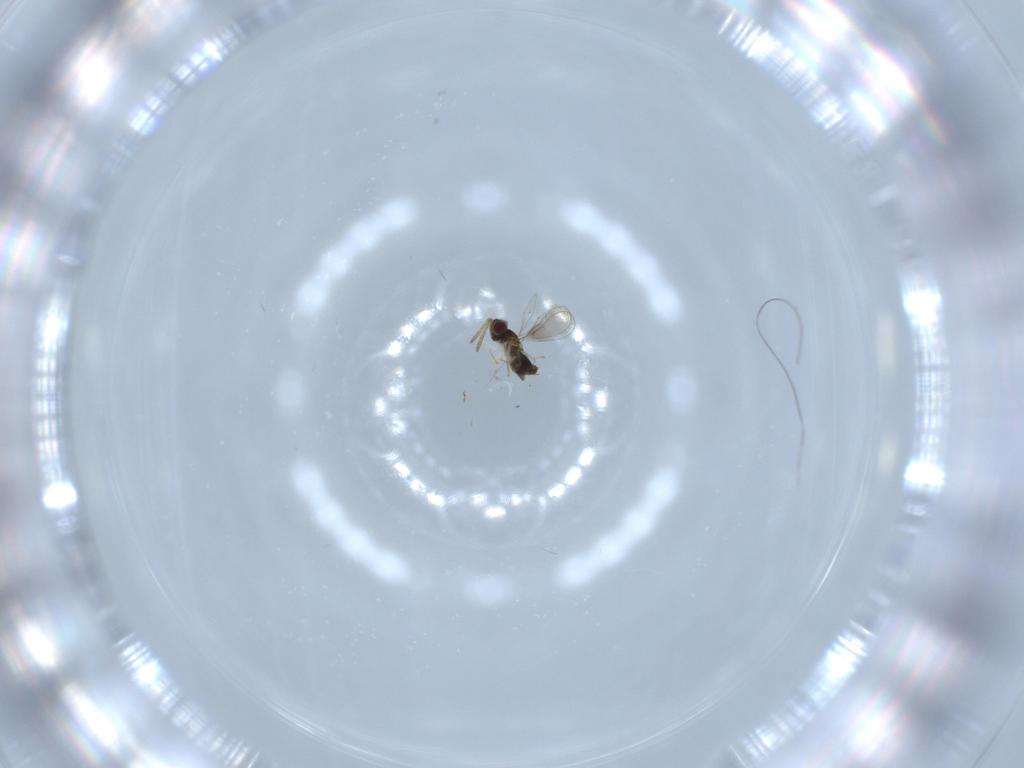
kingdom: Animalia
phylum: Arthropoda
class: Insecta
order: Hymenoptera
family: Aphelinidae
